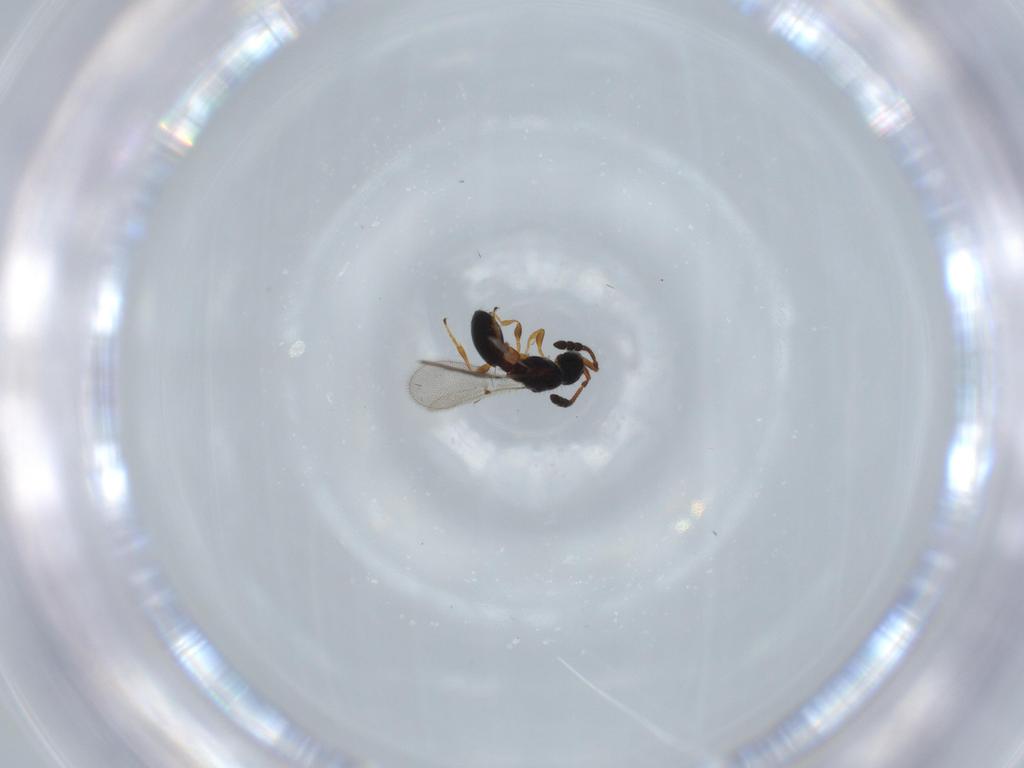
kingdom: Animalia
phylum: Arthropoda
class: Insecta
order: Hymenoptera
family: Diapriidae
